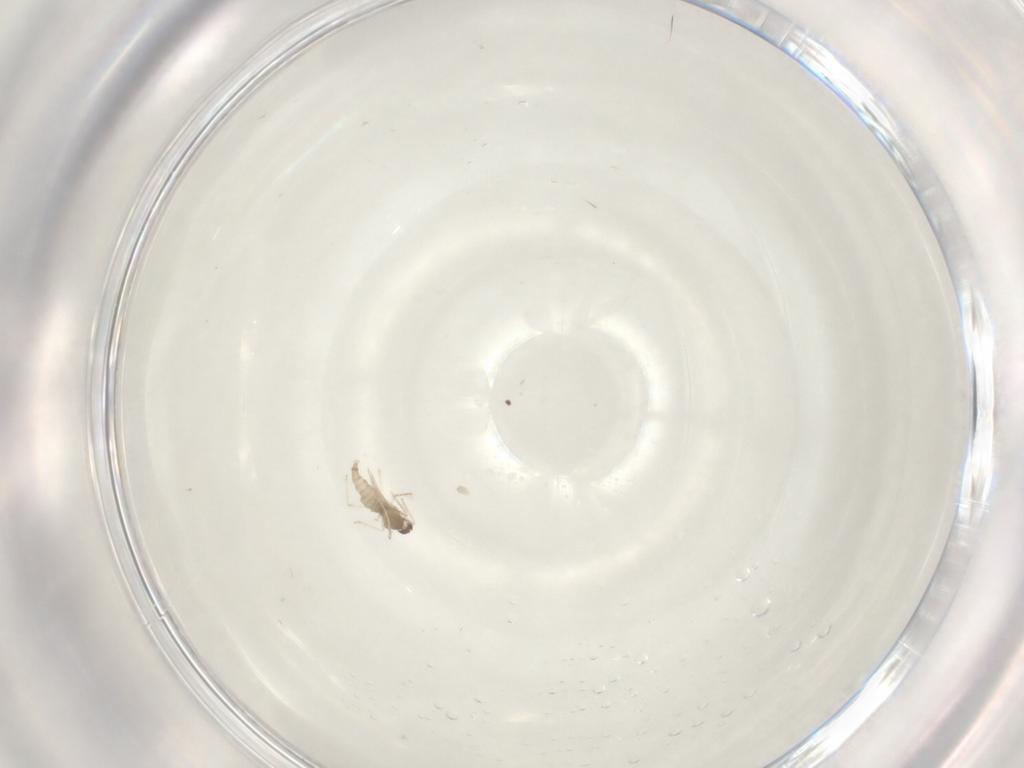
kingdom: Animalia
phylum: Arthropoda
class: Insecta
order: Diptera
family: Cecidomyiidae
